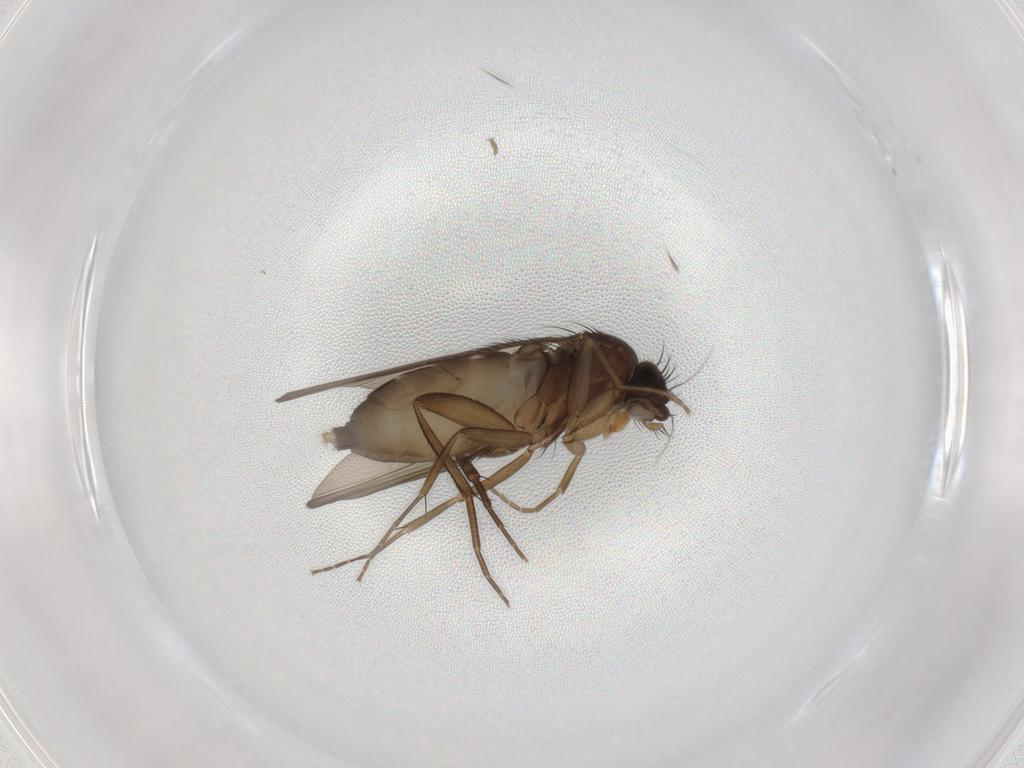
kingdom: Animalia
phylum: Arthropoda
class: Insecta
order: Diptera
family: Phoridae
